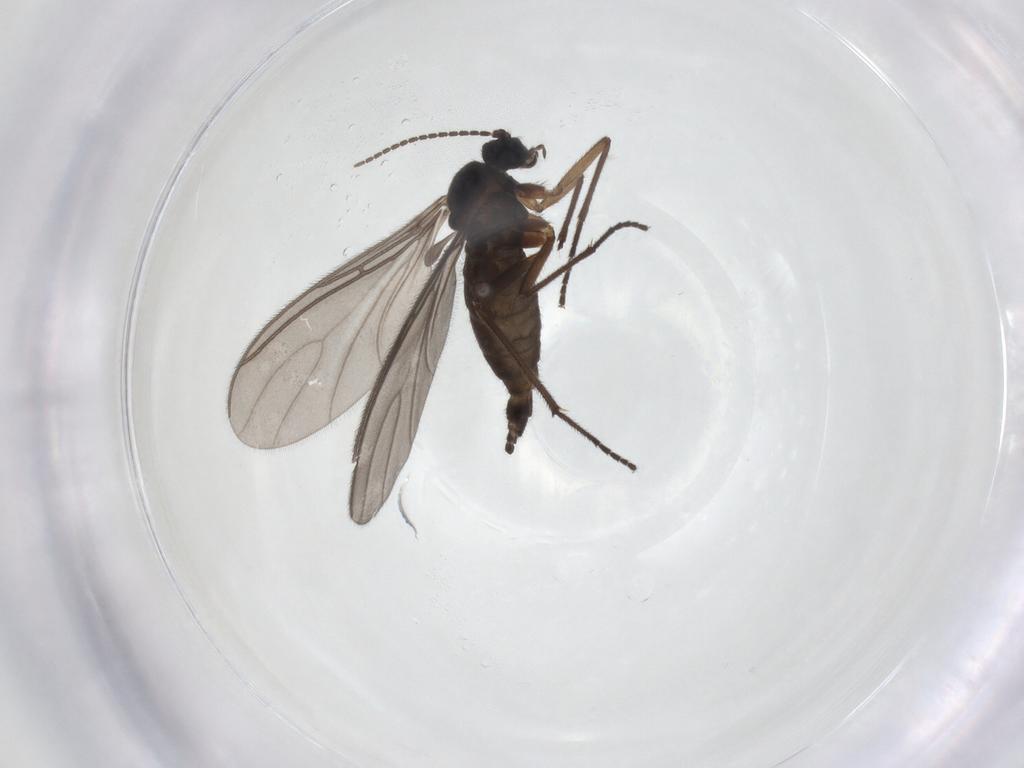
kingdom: Animalia
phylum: Arthropoda
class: Insecta
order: Diptera
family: Sciaridae
